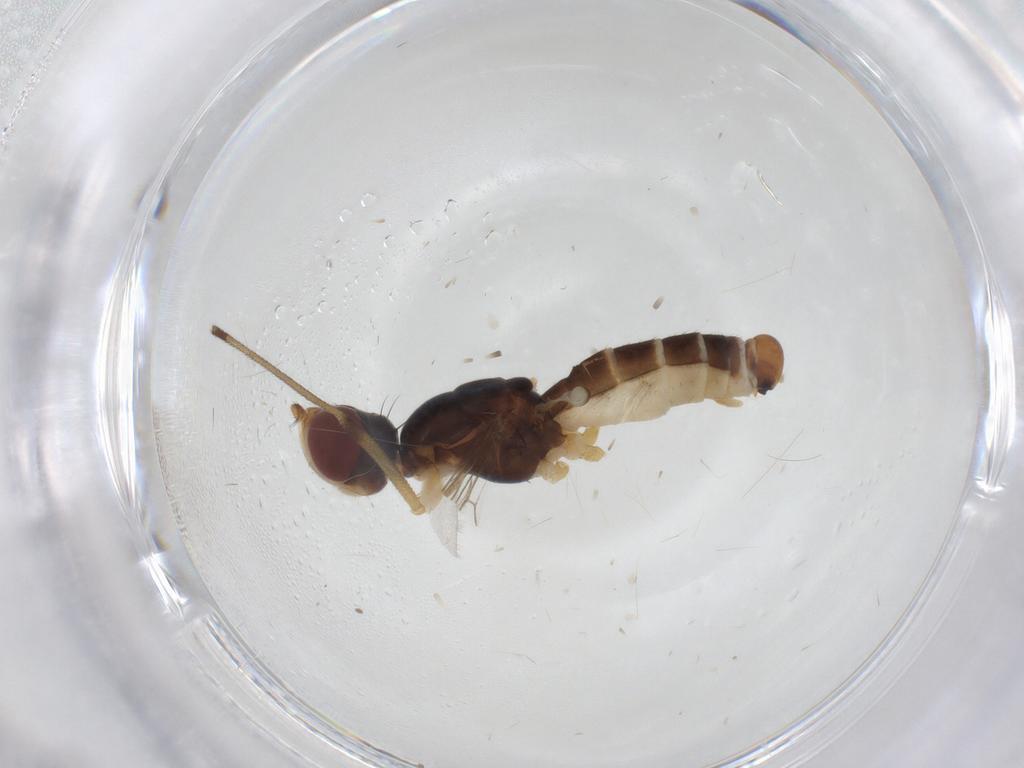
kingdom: Animalia
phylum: Arthropoda
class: Insecta
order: Diptera
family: Micropezidae
